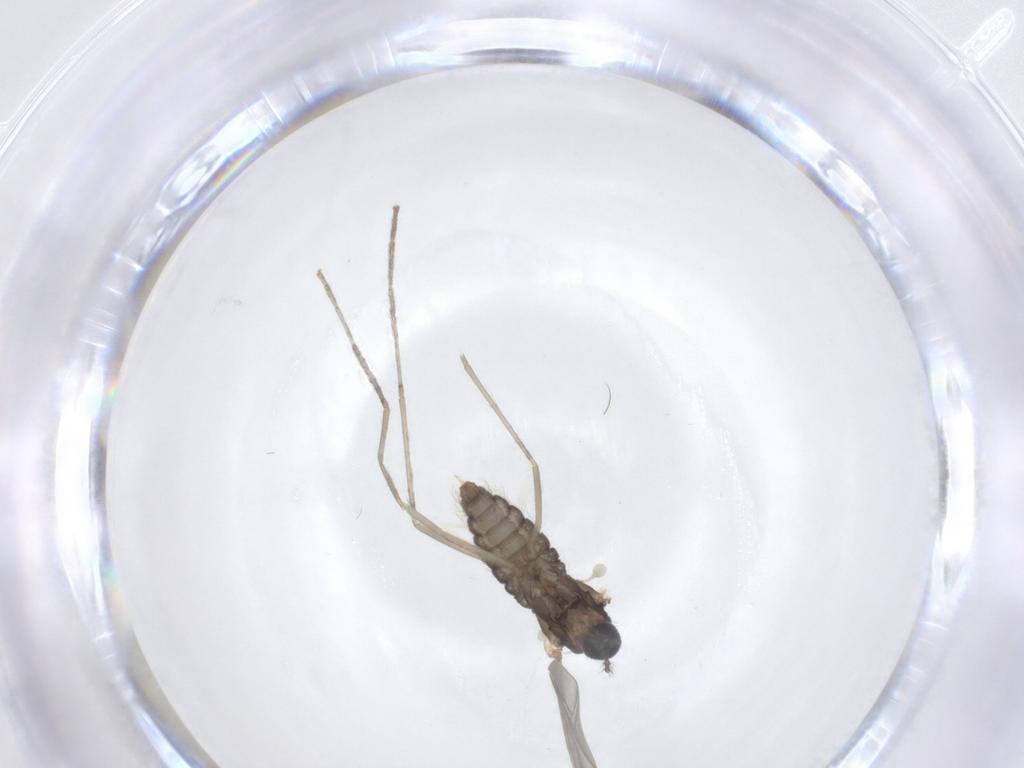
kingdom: Animalia
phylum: Arthropoda
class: Insecta
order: Diptera
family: Cecidomyiidae
